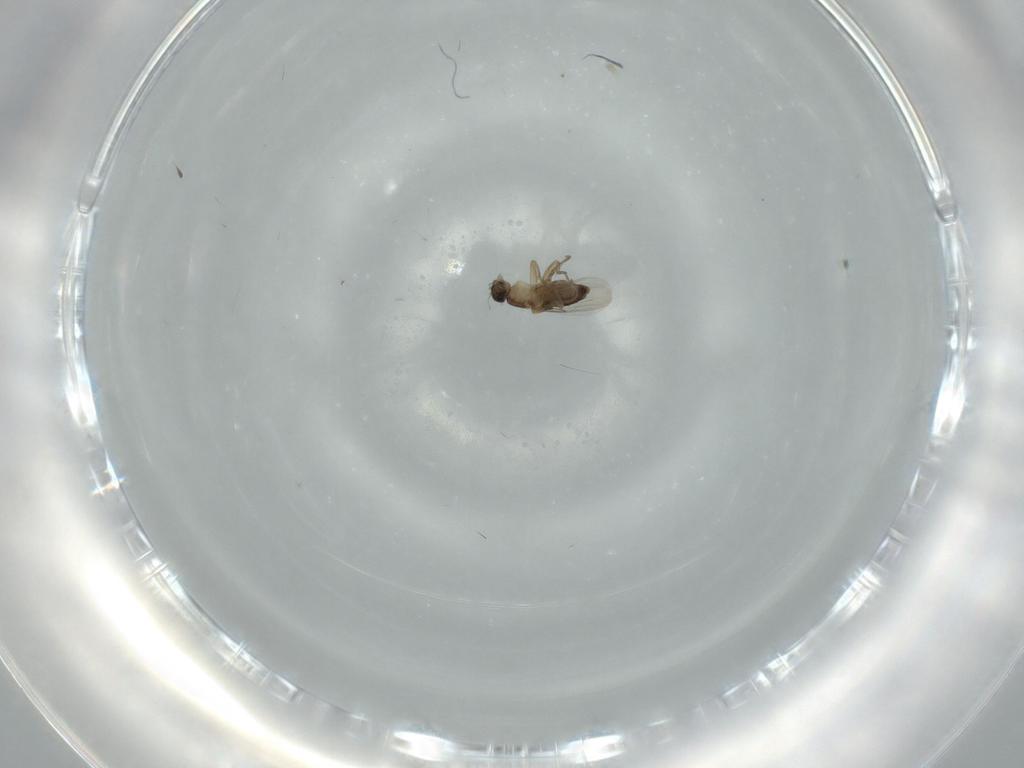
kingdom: Animalia
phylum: Arthropoda
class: Insecta
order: Diptera
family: Phoridae
